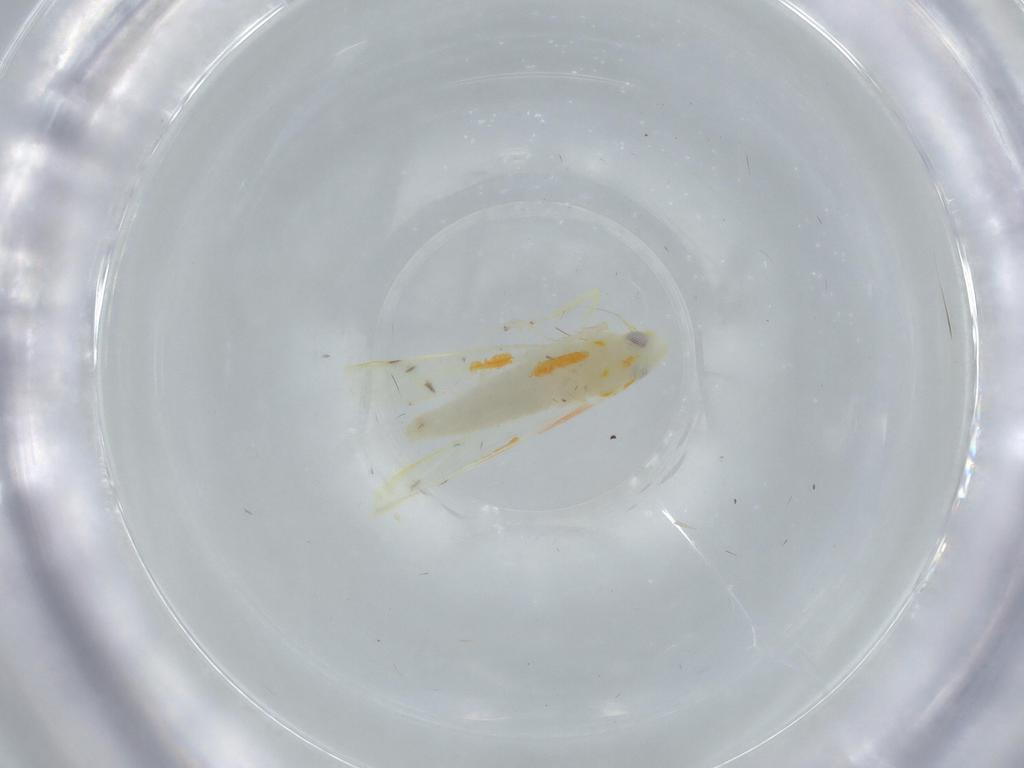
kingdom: Animalia
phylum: Arthropoda
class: Insecta
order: Hemiptera
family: Cicadellidae
